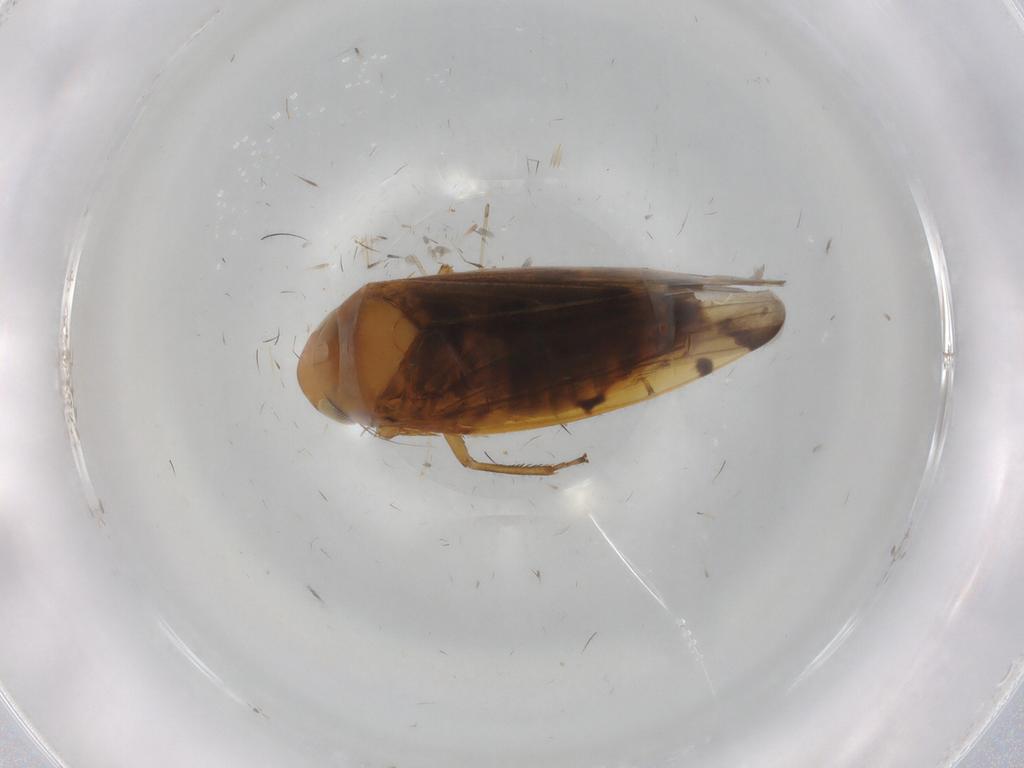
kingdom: Animalia
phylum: Arthropoda
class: Insecta
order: Hemiptera
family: Cicadellidae
